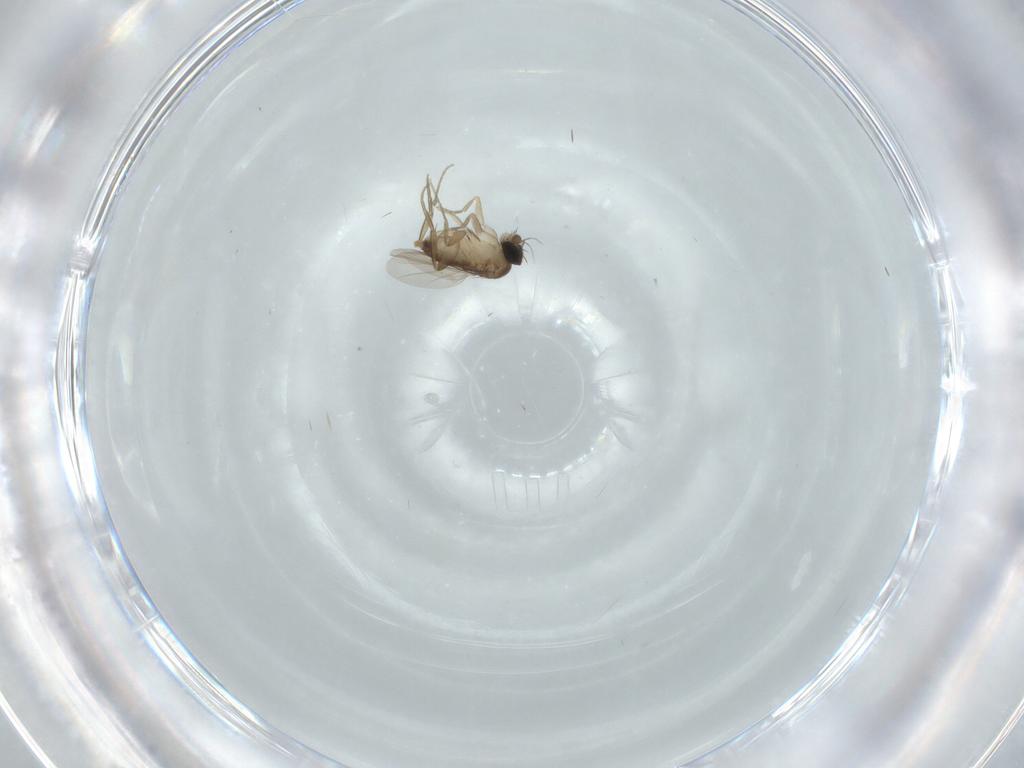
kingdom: Animalia
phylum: Arthropoda
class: Insecta
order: Diptera
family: Phoridae
